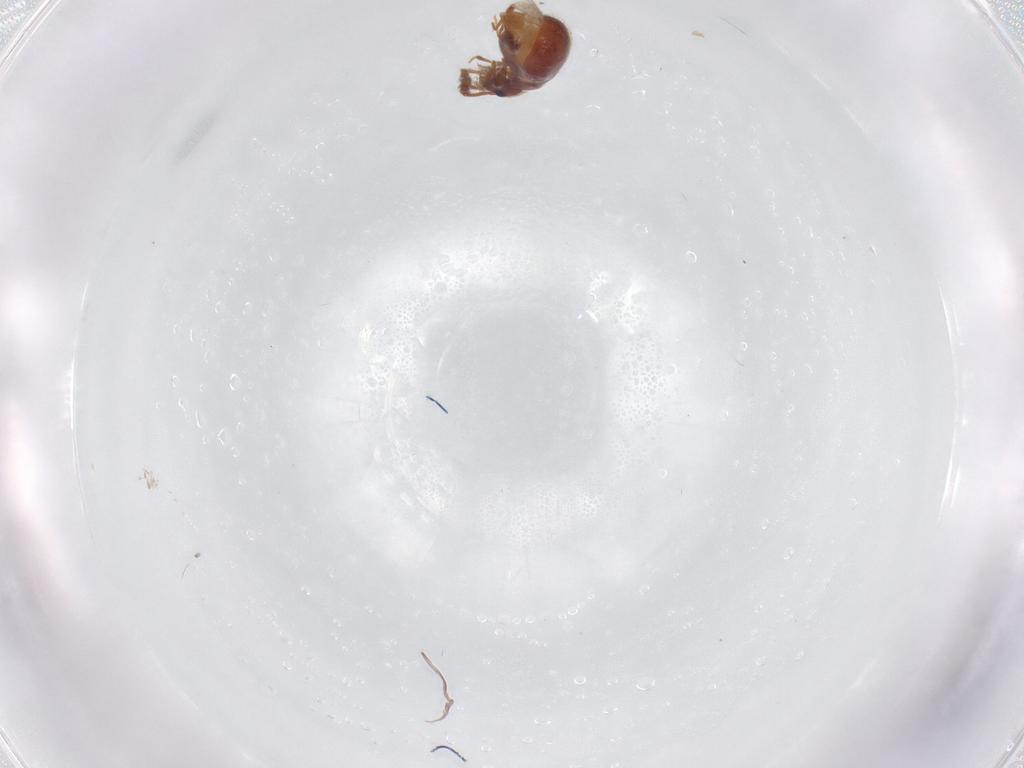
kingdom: Animalia
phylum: Arthropoda
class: Insecta
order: Coleoptera
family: Staphylinidae
